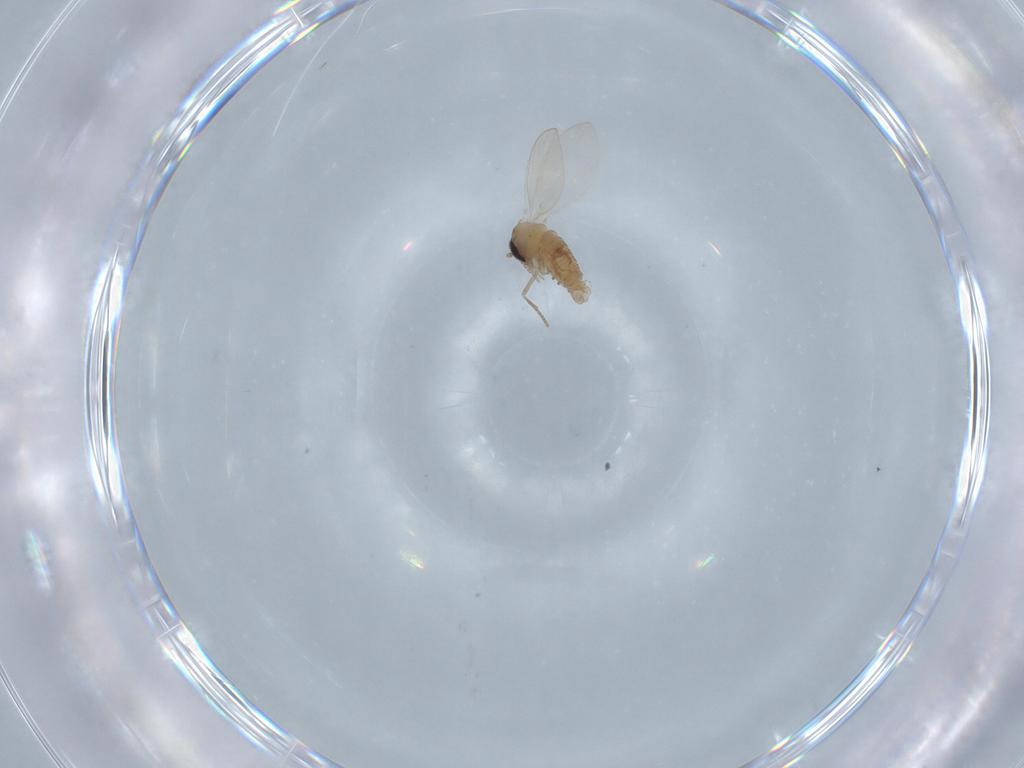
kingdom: Animalia
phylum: Arthropoda
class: Insecta
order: Diptera
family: Psychodidae
